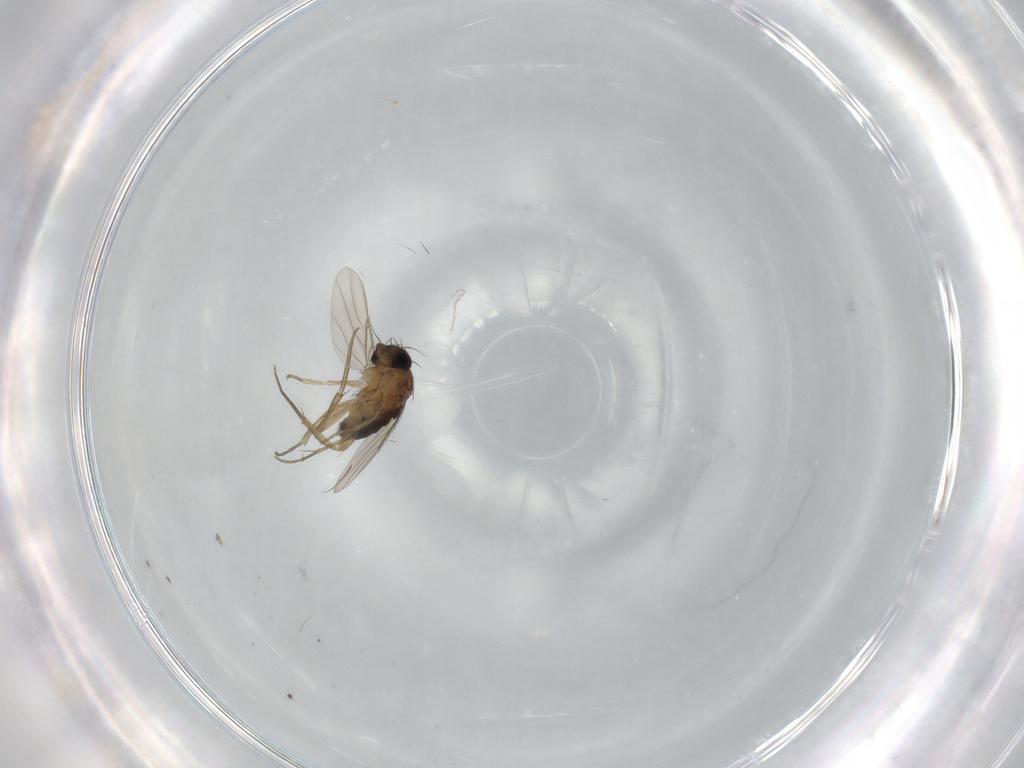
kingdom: Animalia
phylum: Arthropoda
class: Insecta
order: Diptera
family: Phoridae
